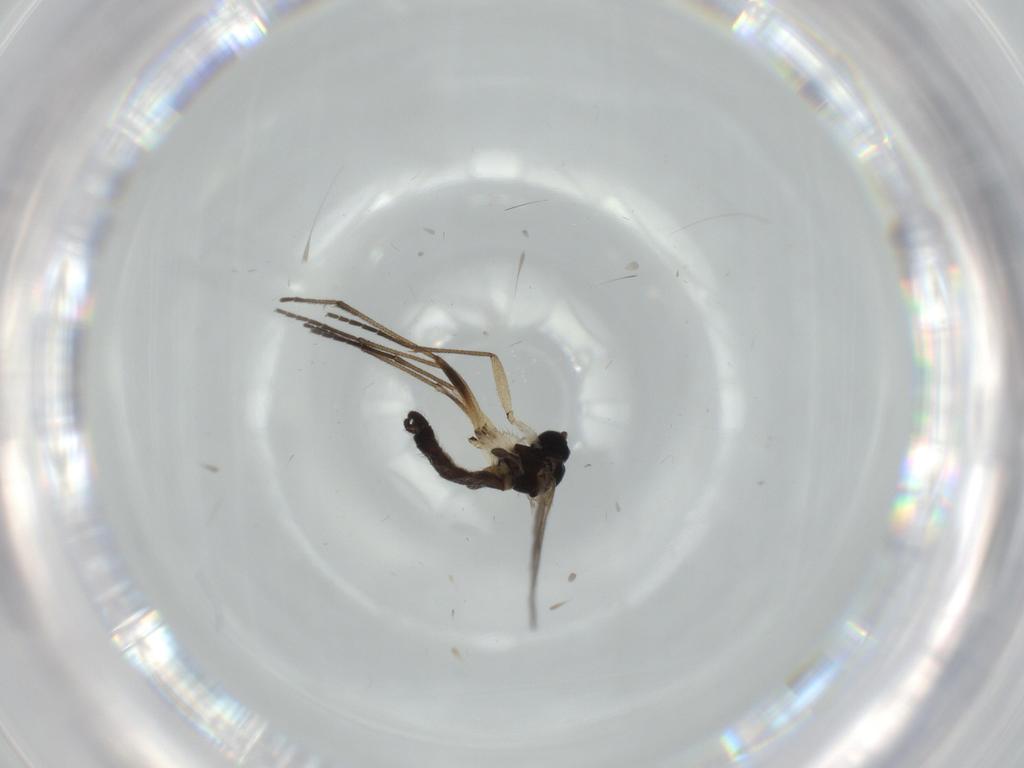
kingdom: Animalia
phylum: Arthropoda
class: Insecta
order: Diptera
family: Sciaridae
